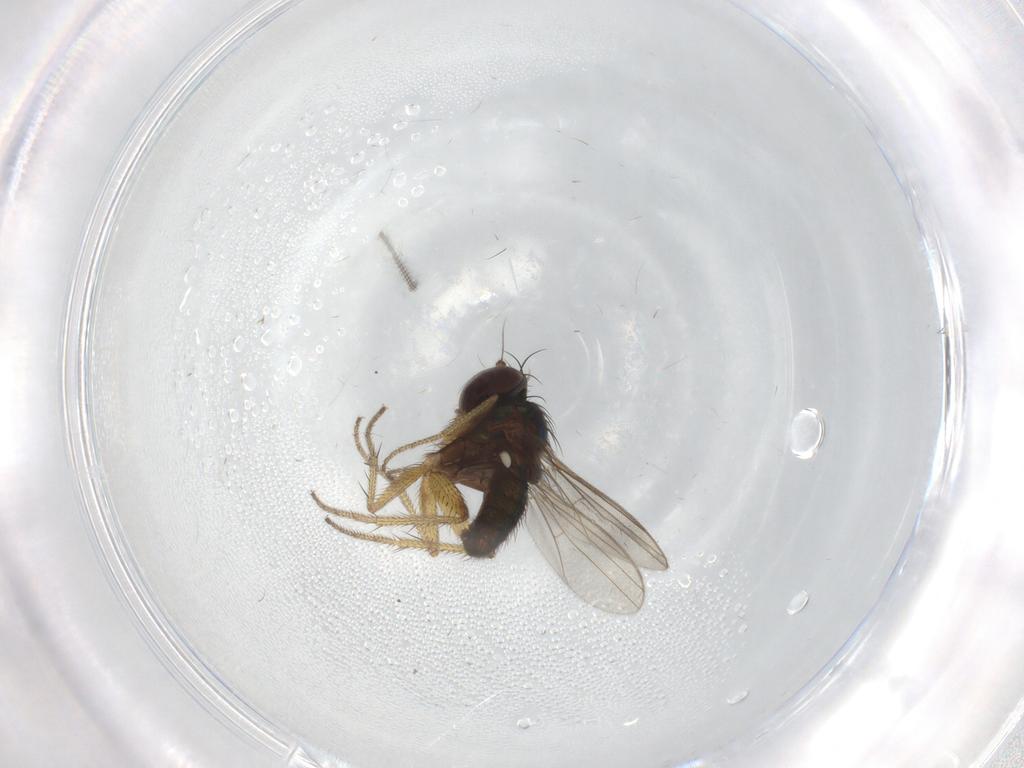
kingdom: Animalia
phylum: Arthropoda
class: Insecta
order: Diptera
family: Chironomidae
